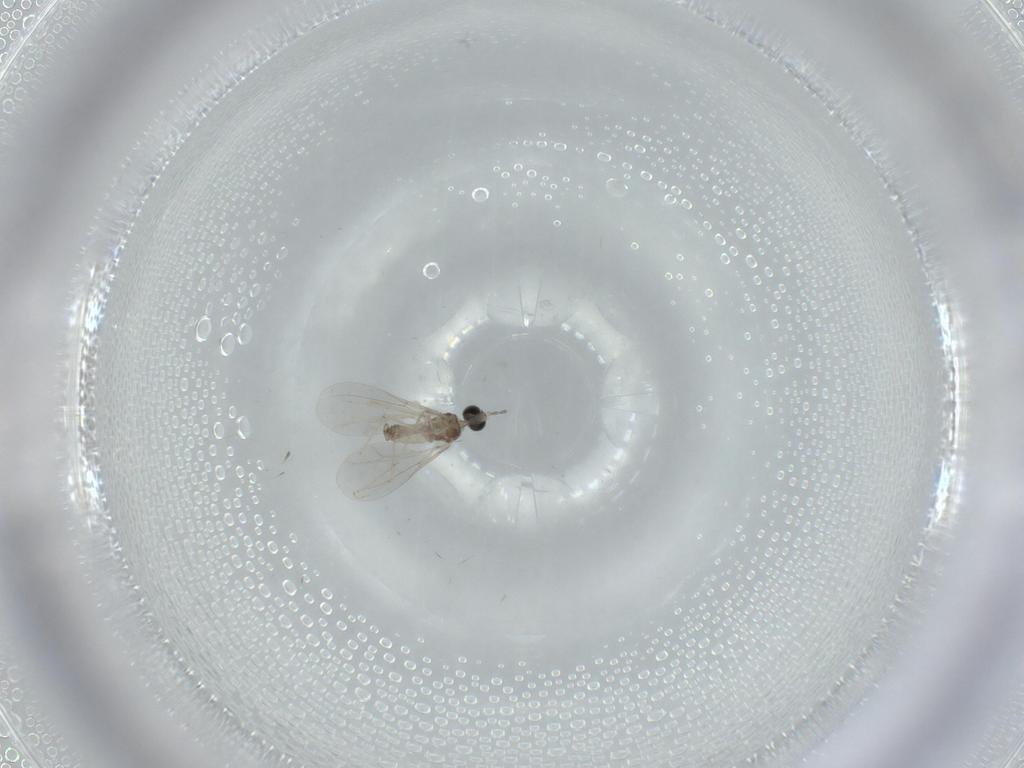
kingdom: Animalia
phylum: Arthropoda
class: Insecta
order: Diptera
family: Cecidomyiidae
